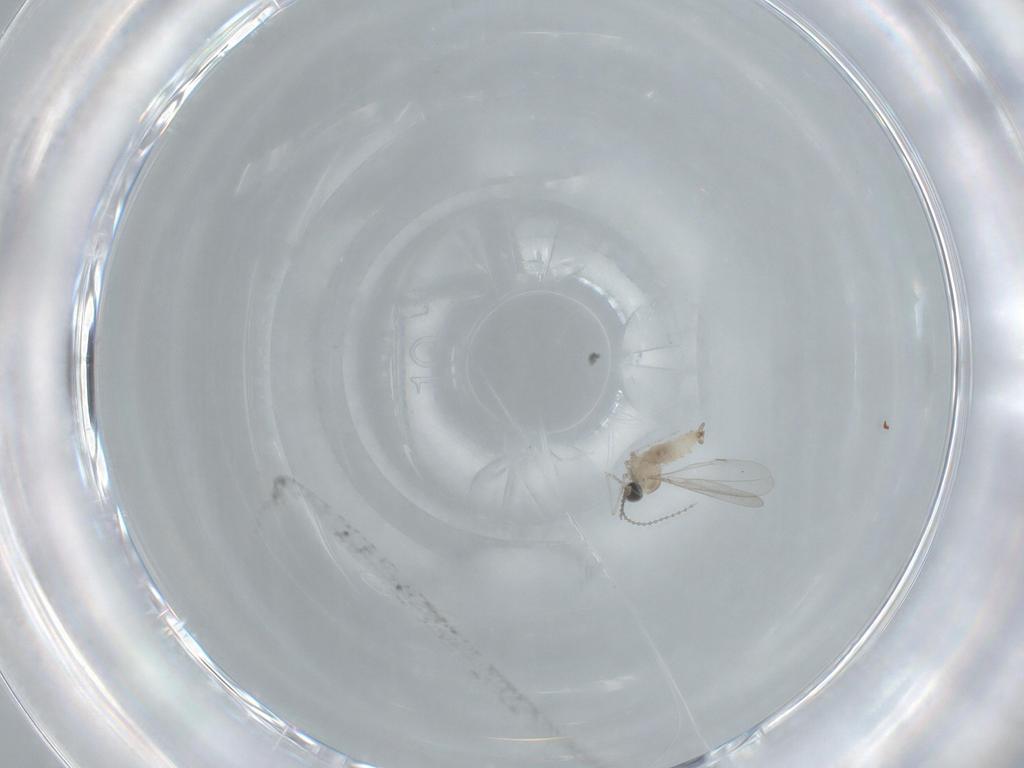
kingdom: Animalia
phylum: Arthropoda
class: Insecta
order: Diptera
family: Cecidomyiidae
